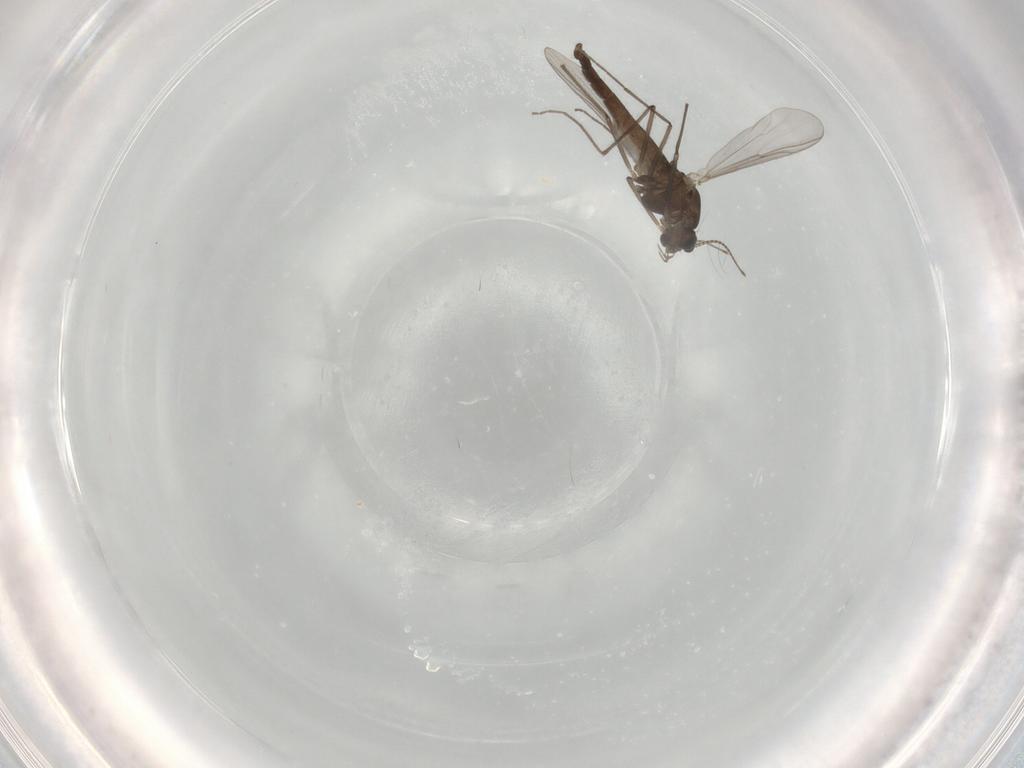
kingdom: Animalia
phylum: Arthropoda
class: Insecta
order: Diptera
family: Chironomidae
